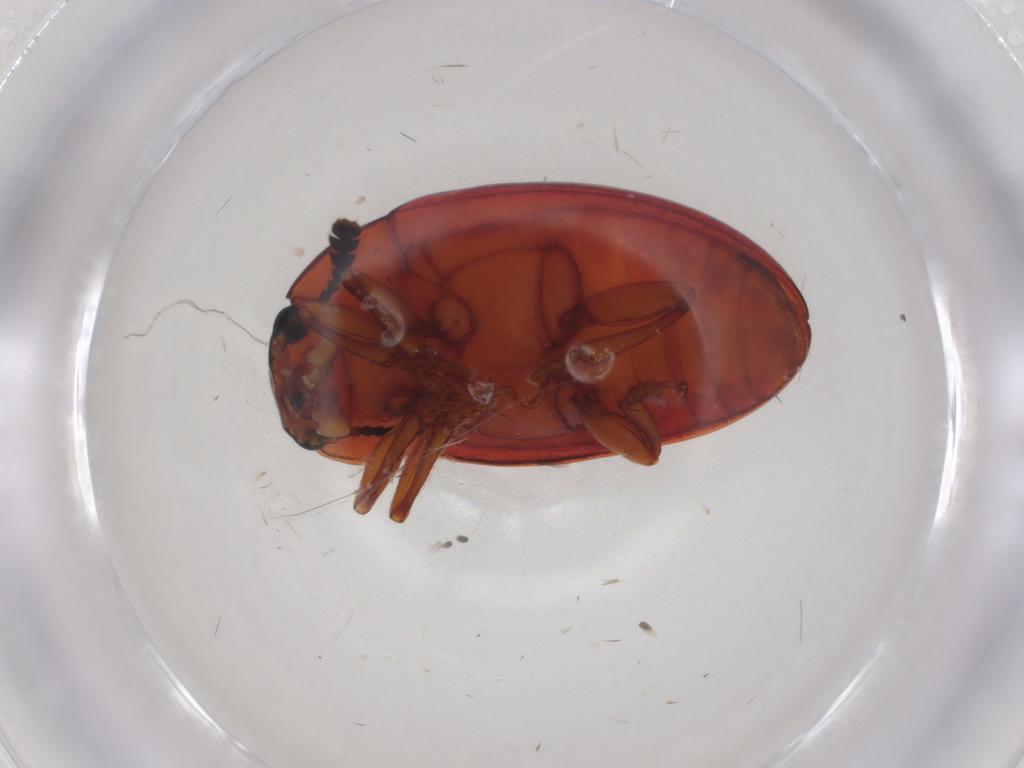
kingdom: Animalia
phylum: Arthropoda
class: Insecta
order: Coleoptera
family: Erotylidae
